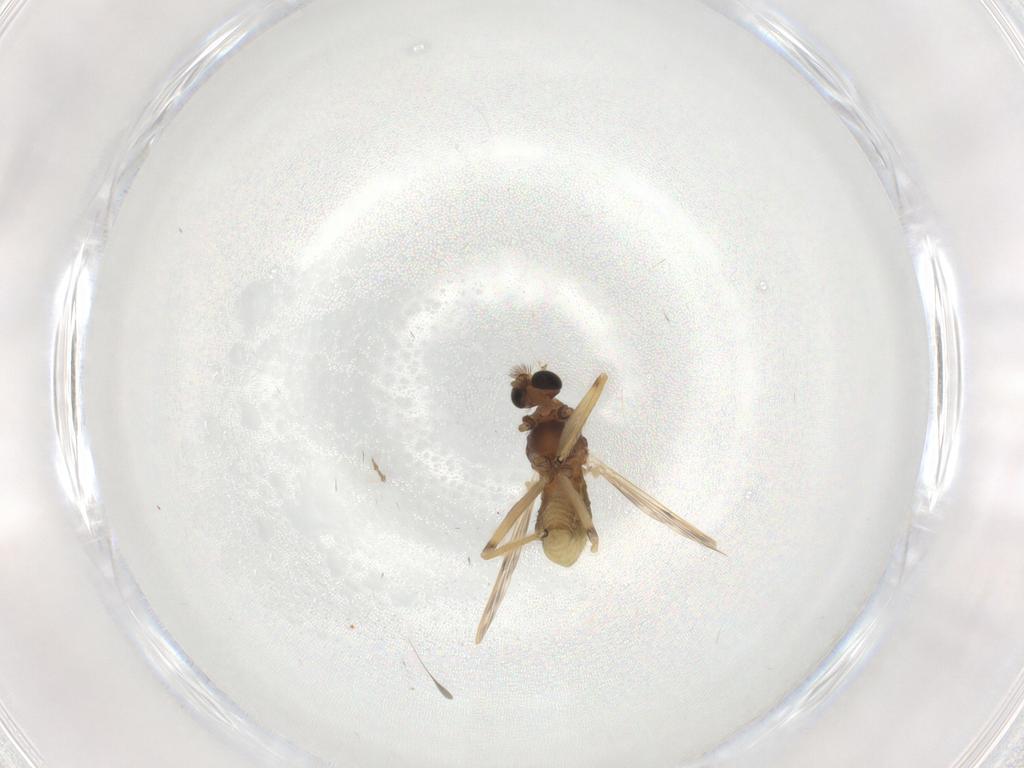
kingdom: Animalia
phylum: Arthropoda
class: Insecta
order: Diptera
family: Chironomidae
